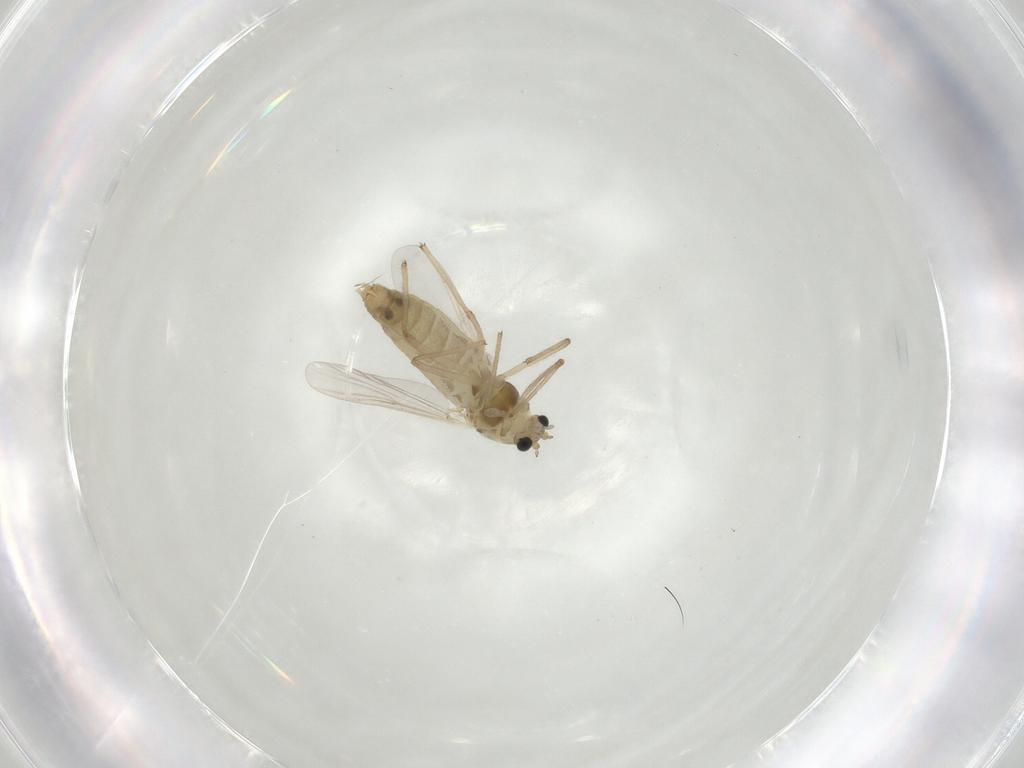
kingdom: Animalia
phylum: Arthropoda
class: Insecta
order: Diptera
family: Chironomidae
